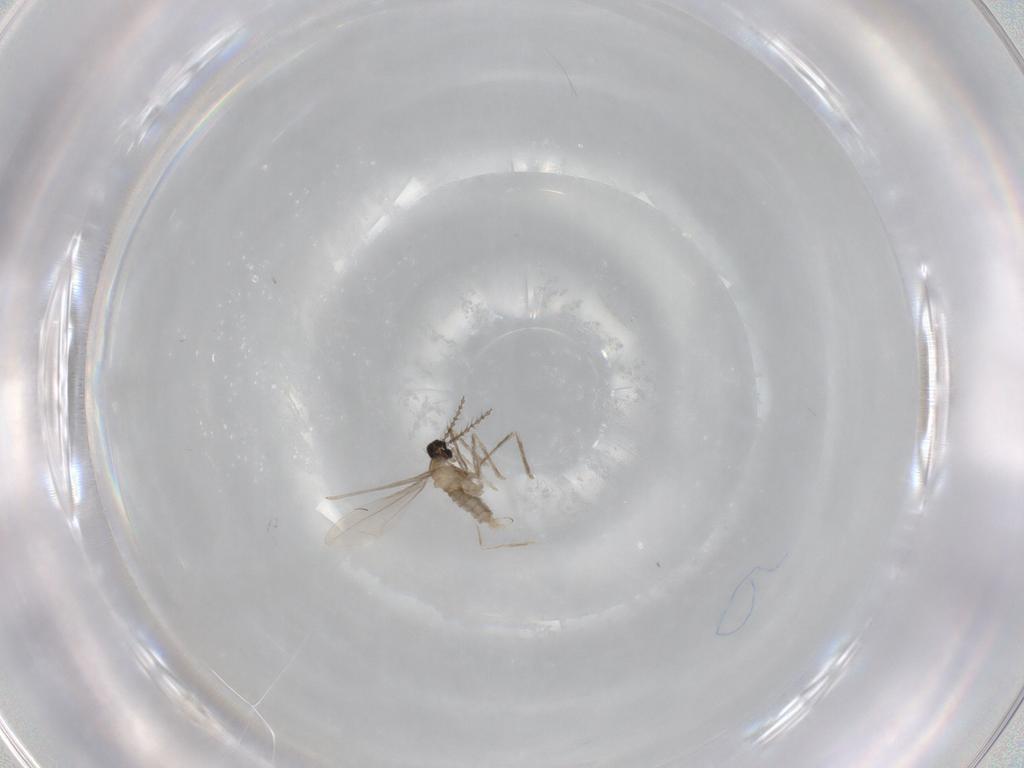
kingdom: Animalia
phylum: Arthropoda
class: Insecta
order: Diptera
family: Cecidomyiidae
